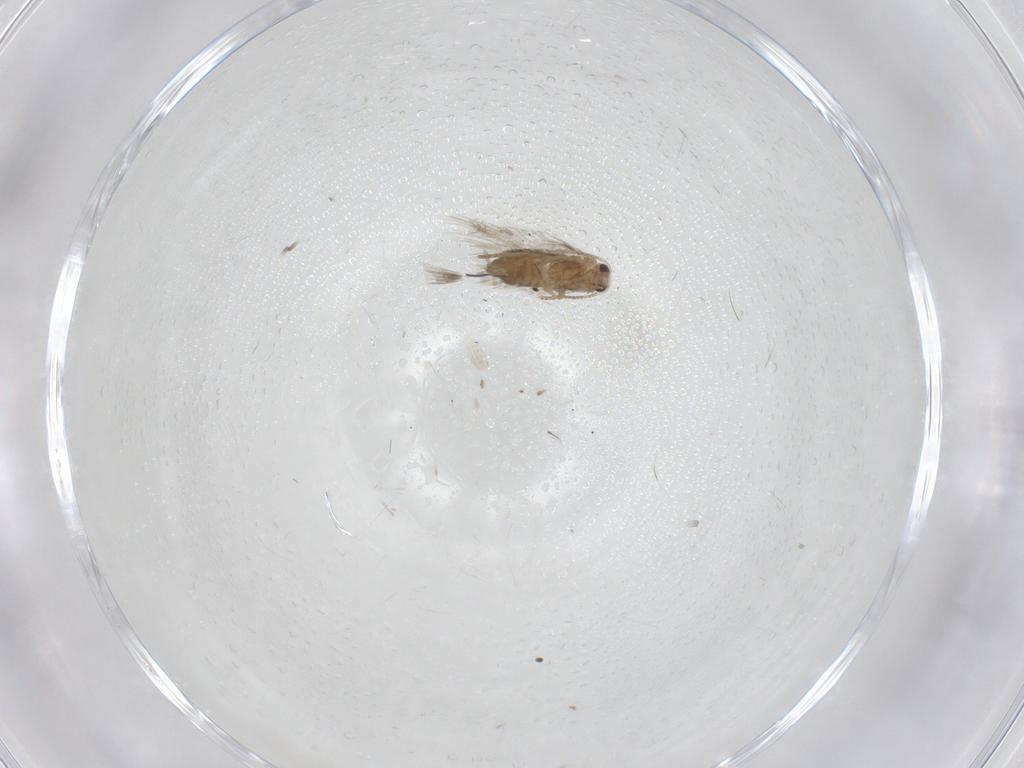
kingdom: Animalia
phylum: Arthropoda
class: Insecta
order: Lepidoptera
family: Nepticulidae
